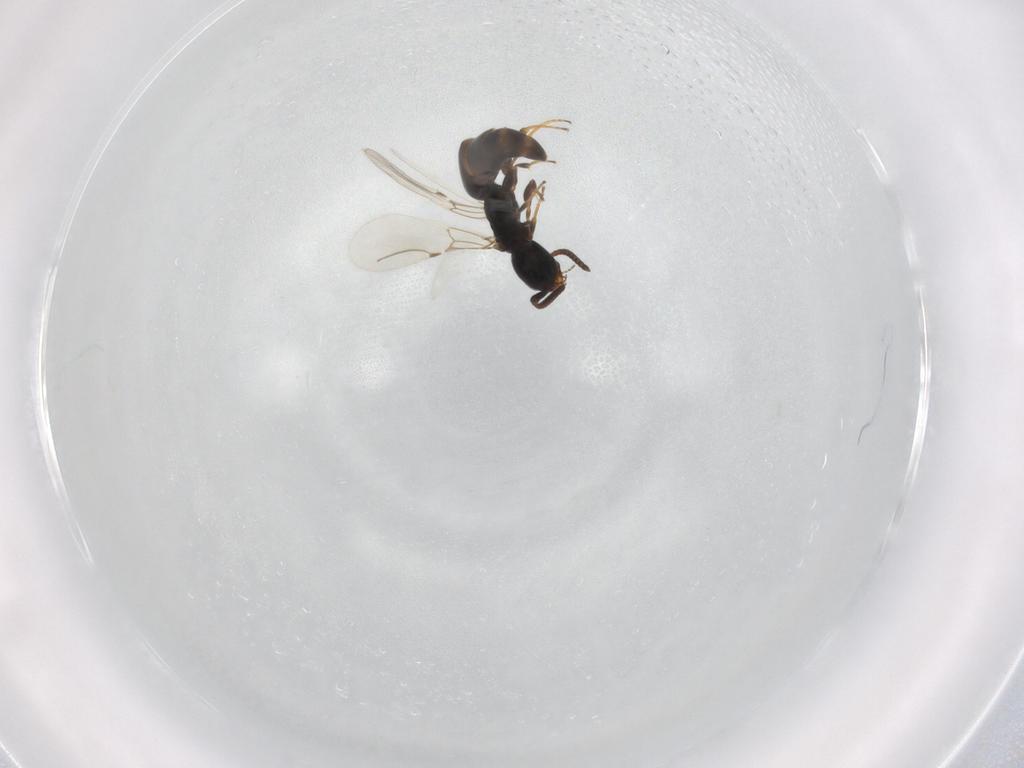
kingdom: Animalia
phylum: Arthropoda
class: Insecta
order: Hymenoptera
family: Bethylidae
